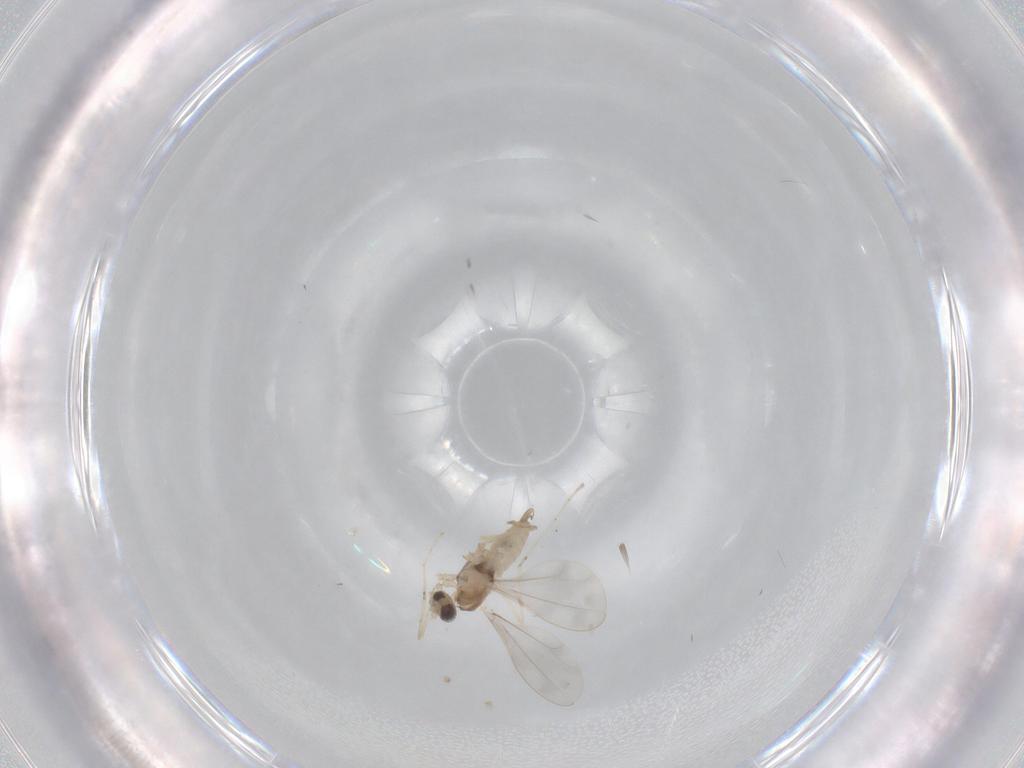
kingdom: Animalia
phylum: Arthropoda
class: Insecta
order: Diptera
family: Cecidomyiidae
